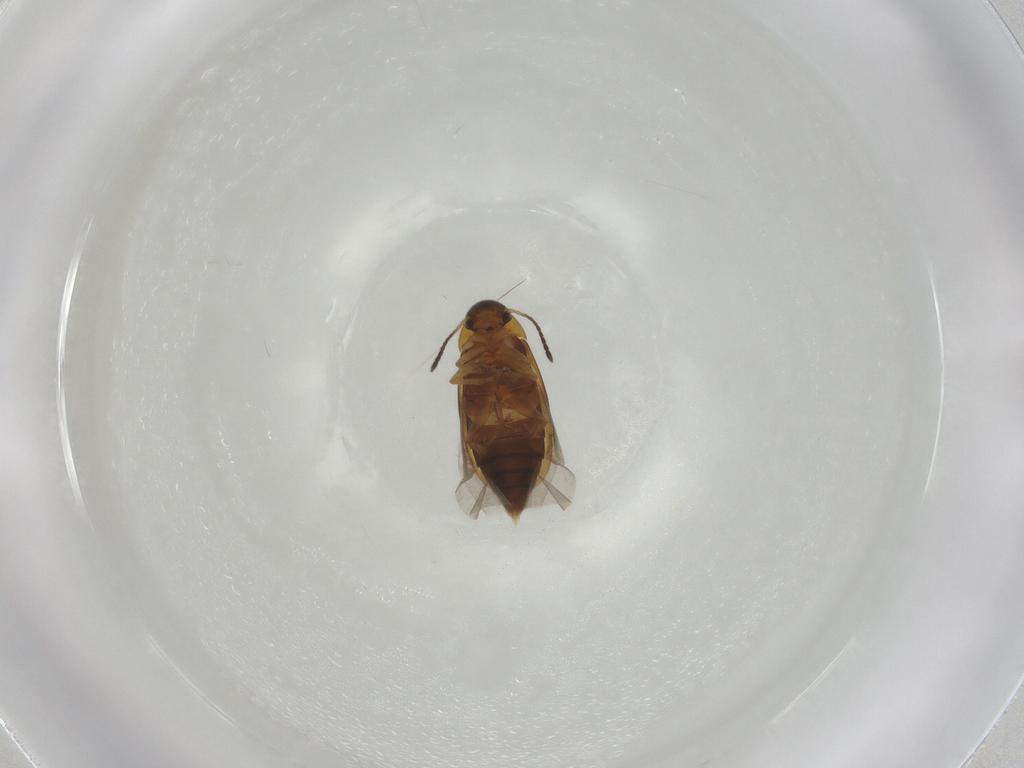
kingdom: Animalia
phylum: Arthropoda
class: Insecta
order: Coleoptera
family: Scraptiidae
